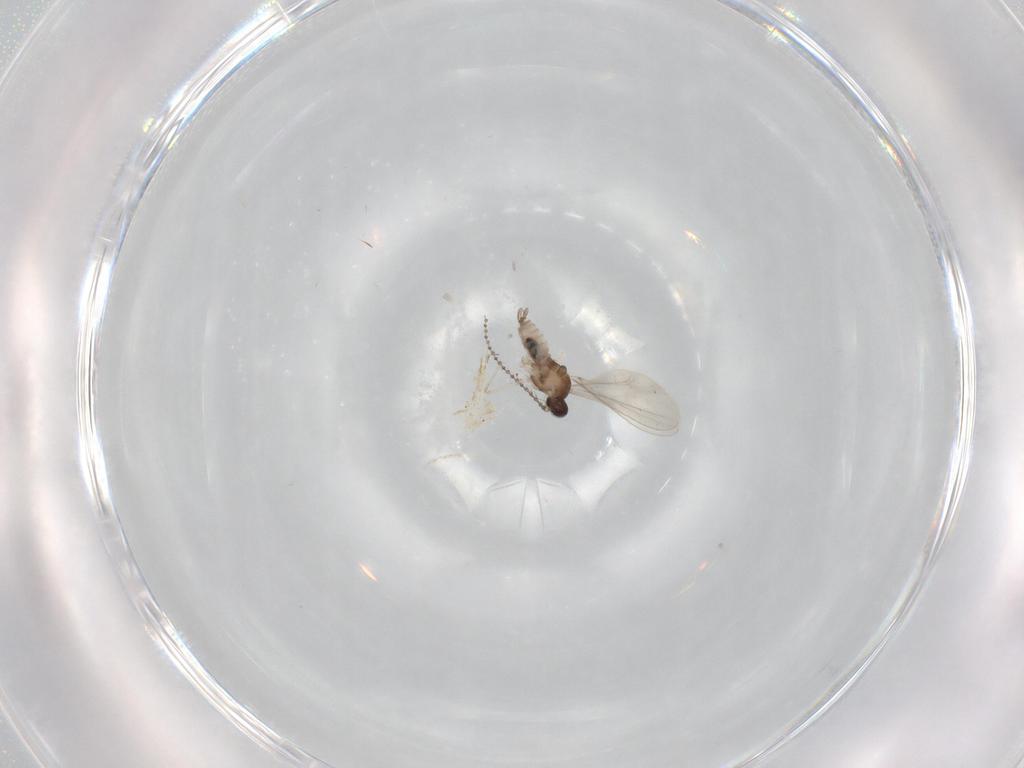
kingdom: Animalia
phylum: Arthropoda
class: Insecta
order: Diptera
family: Cecidomyiidae
